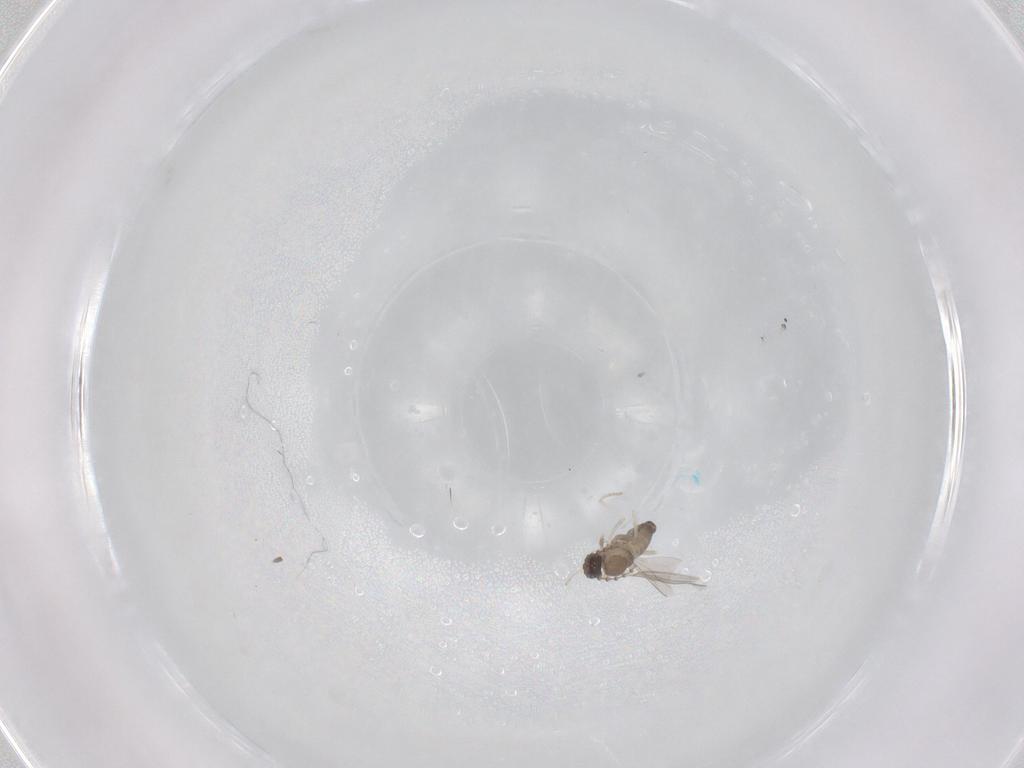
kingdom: Animalia
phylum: Arthropoda
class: Insecta
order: Diptera
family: Cecidomyiidae
